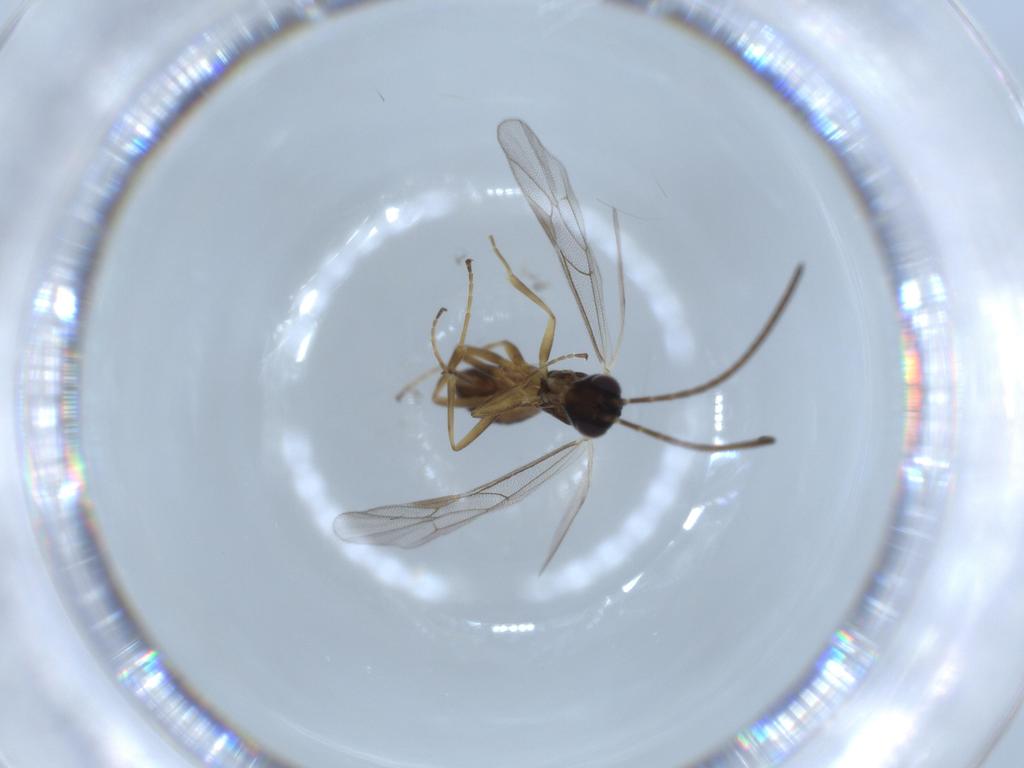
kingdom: Animalia
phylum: Arthropoda
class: Insecta
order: Hymenoptera
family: Ichneumonidae
